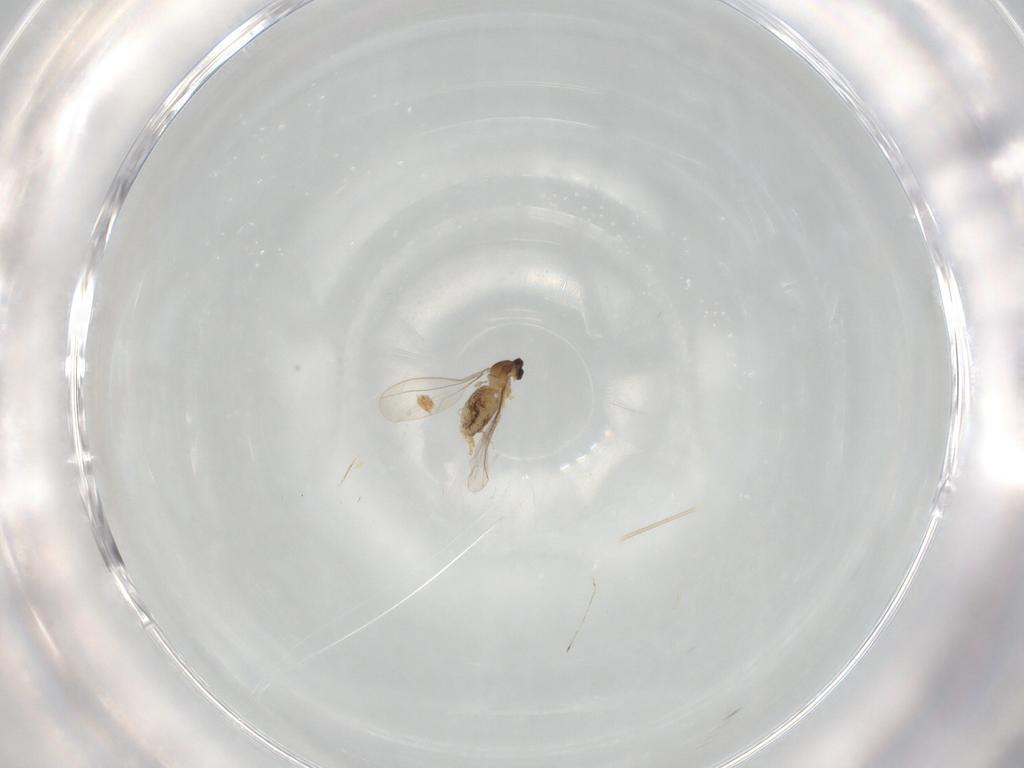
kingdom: Animalia
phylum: Arthropoda
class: Insecta
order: Diptera
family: Cecidomyiidae
